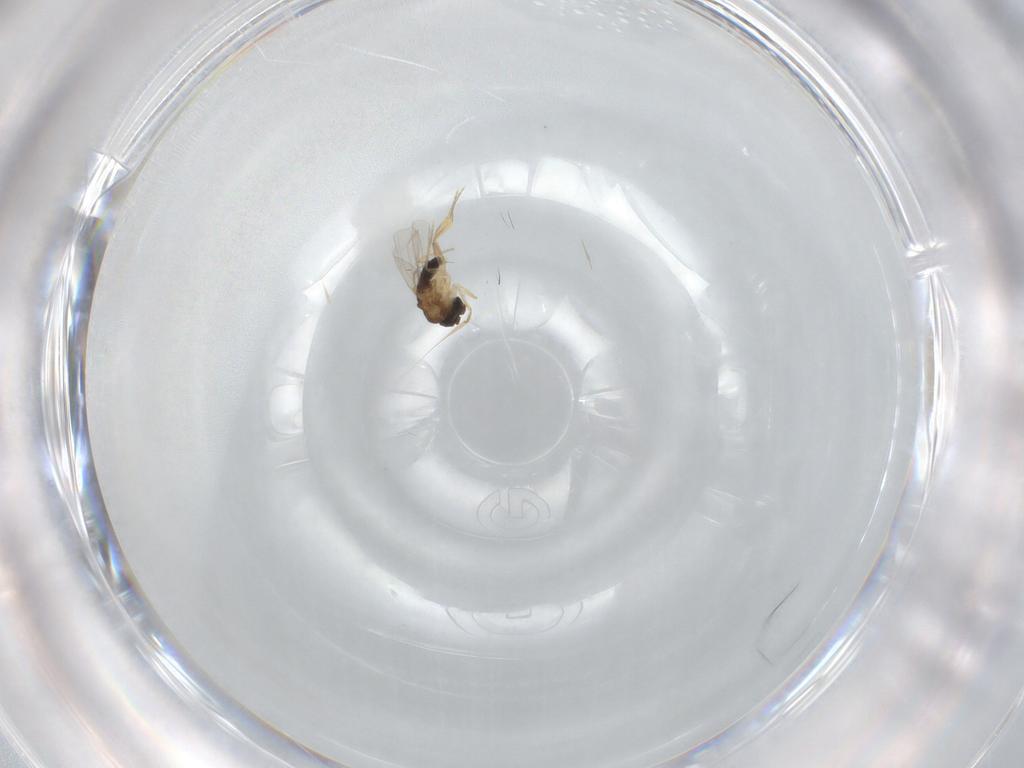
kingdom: Animalia
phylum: Arthropoda
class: Insecta
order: Diptera
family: Phoridae
